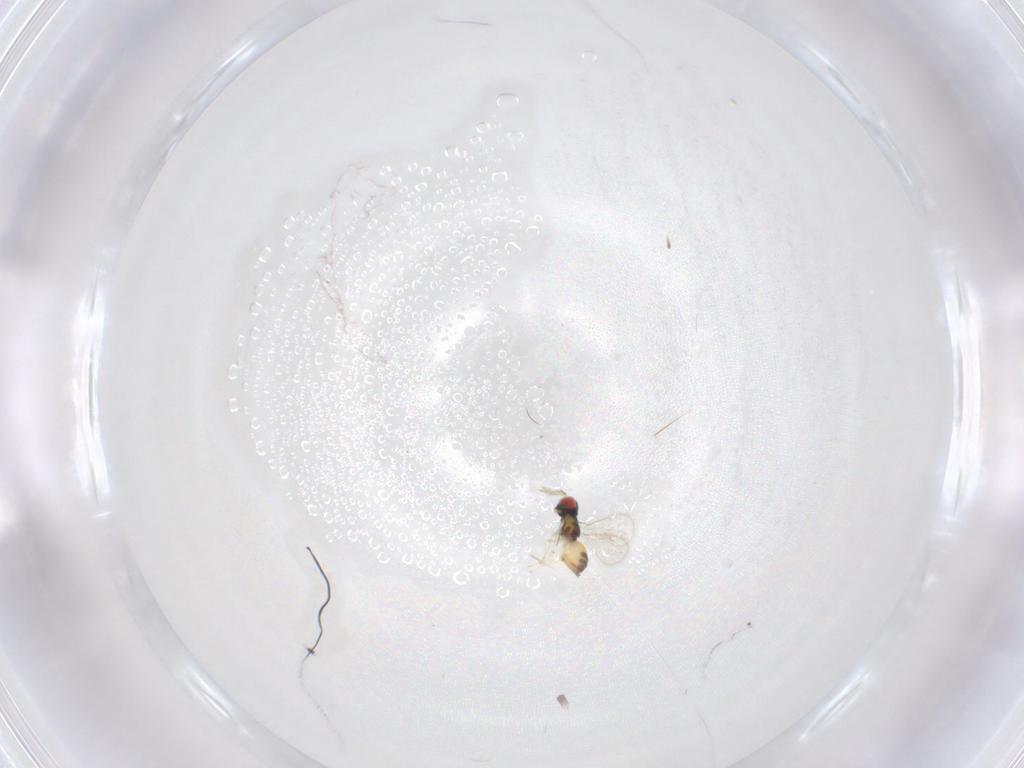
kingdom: Animalia
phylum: Arthropoda
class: Insecta
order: Hymenoptera
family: Eulophidae
